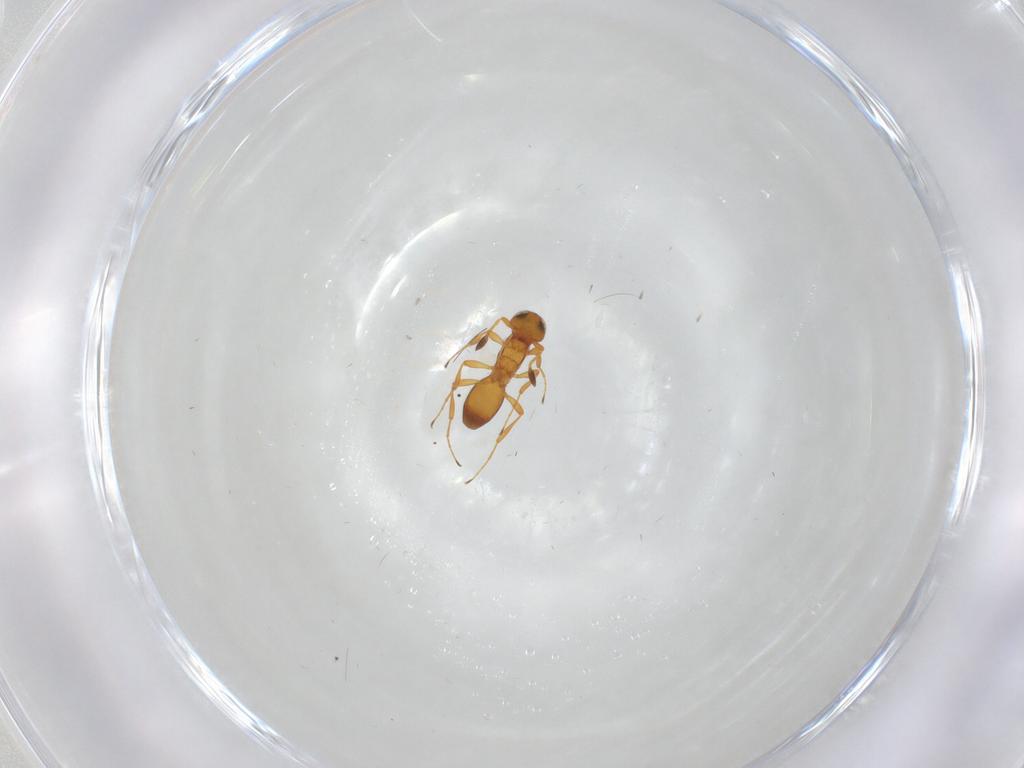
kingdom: Animalia
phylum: Arthropoda
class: Insecta
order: Hymenoptera
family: Platygastridae
